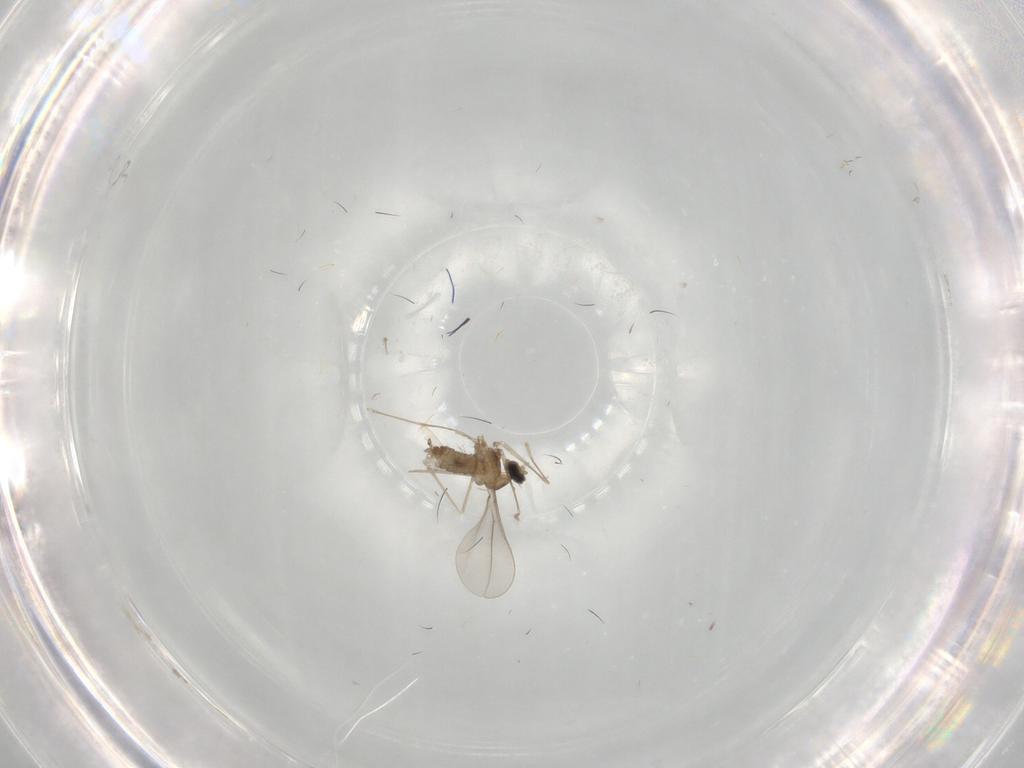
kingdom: Animalia
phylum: Arthropoda
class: Insecta
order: Diptera
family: Cecidomyiidae
